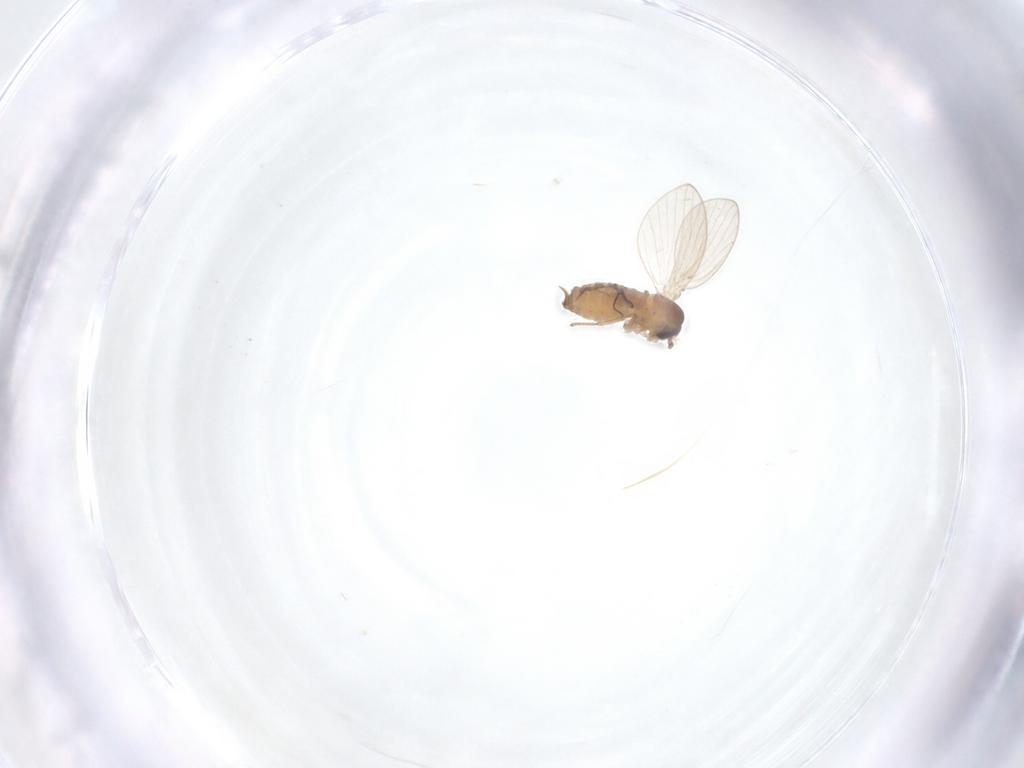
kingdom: Animalia
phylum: Arthropoda
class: Insecta
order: Diptera
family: Psychodidae
